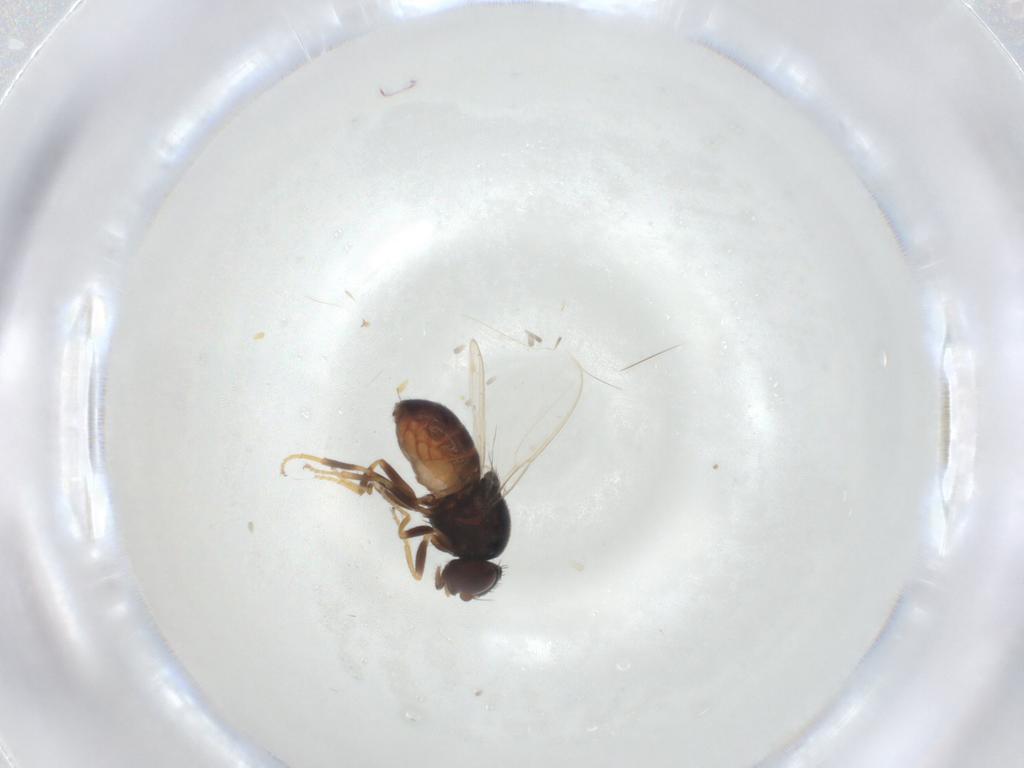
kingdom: Animalia
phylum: Arthropoda
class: Insecta
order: Diptera
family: Chloropidae
